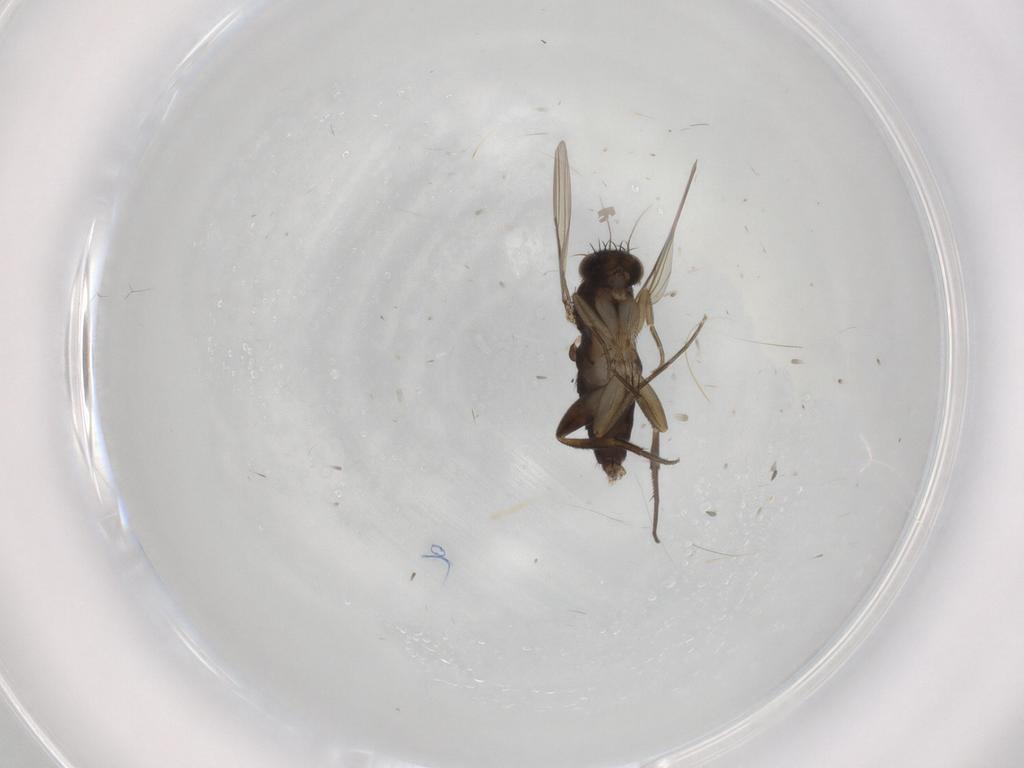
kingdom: Animalia
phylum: Arthropoda
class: Insecta
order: Diptera
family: Phoridae
